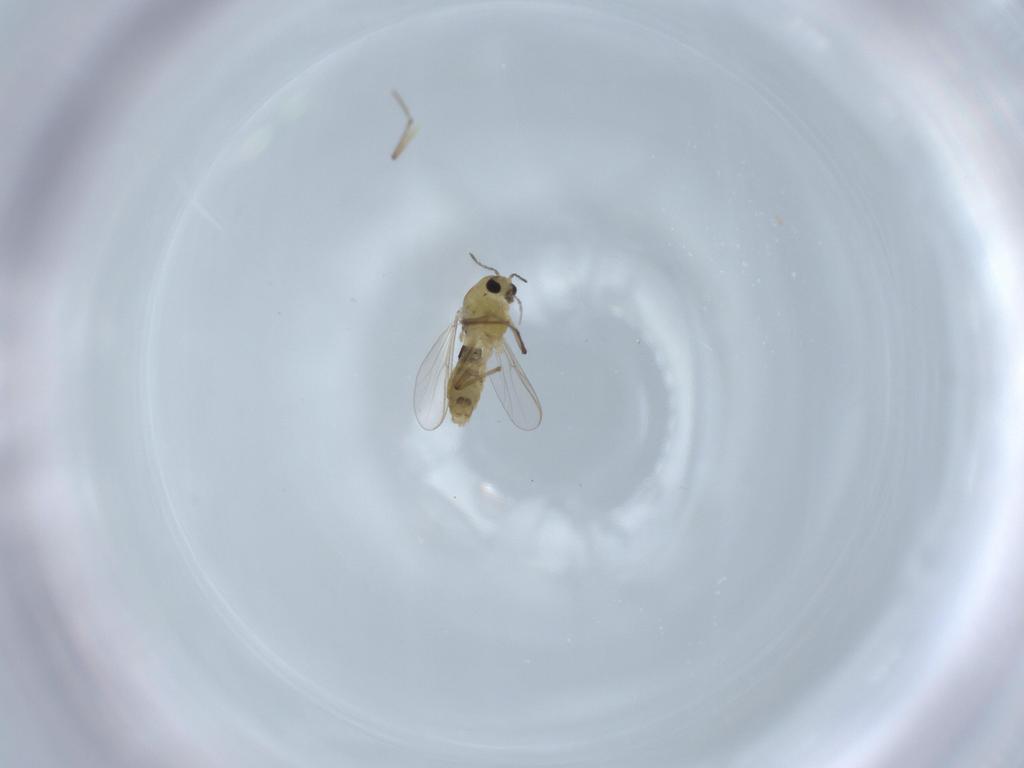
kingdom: Animalia
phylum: Arthropoda
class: Insecta
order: Diptera
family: Chironomidae
